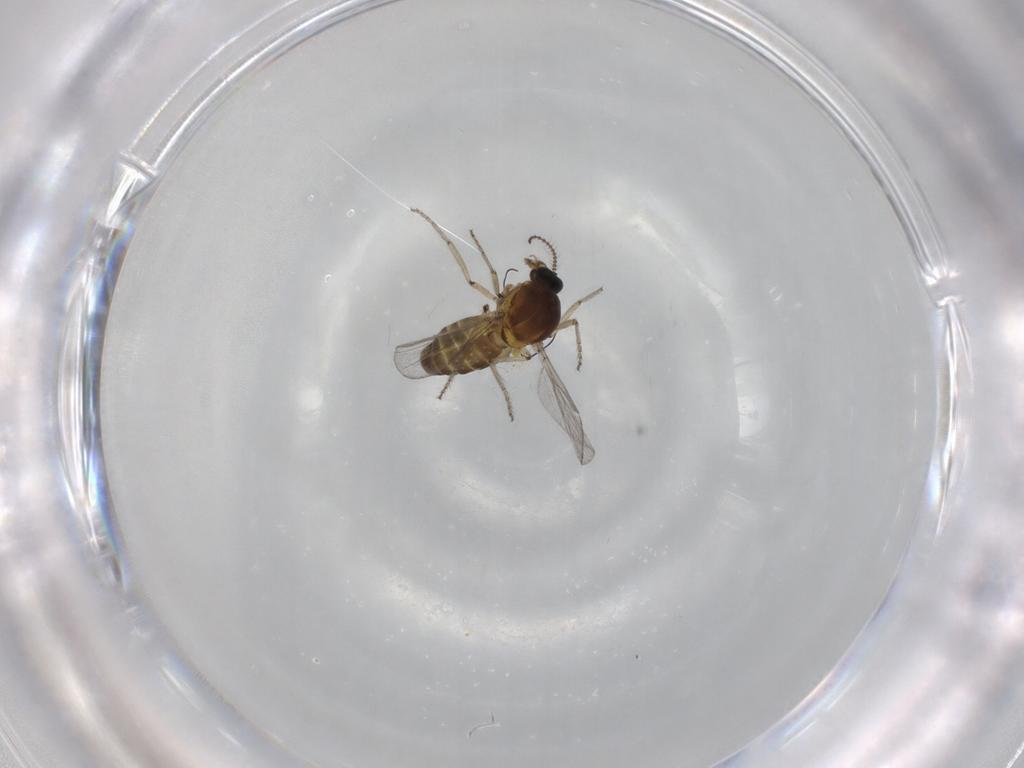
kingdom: Animalia
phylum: Arthropoda
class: Insecta
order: Diptera
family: Ceratopogonidae
